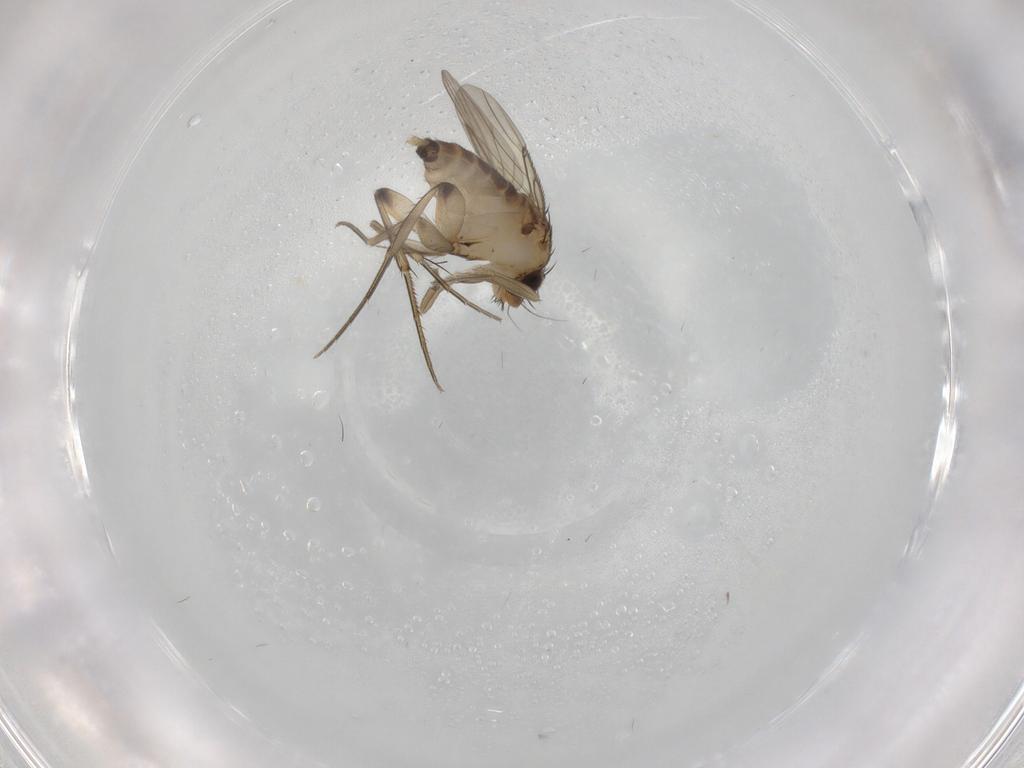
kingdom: Animalia
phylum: Arthropoda
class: Insecta
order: Diptera
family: Ceratopogonidae
